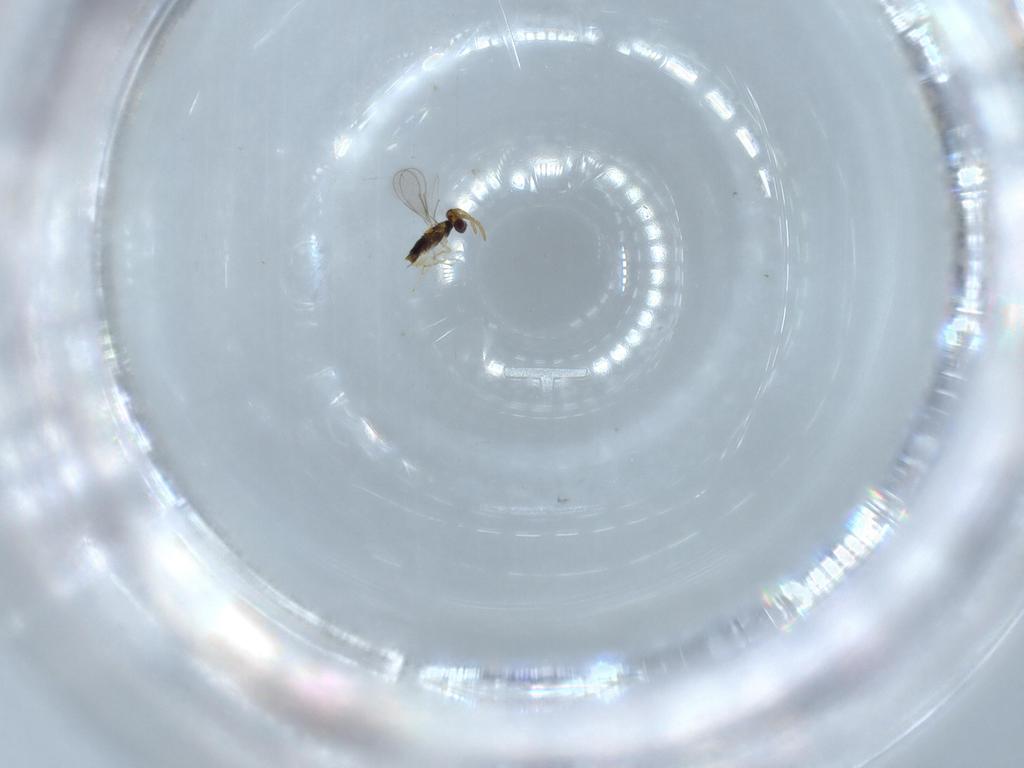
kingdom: Animalia
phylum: Arthropoda
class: Insecta
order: Hymenoptera
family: Aphelinidae
